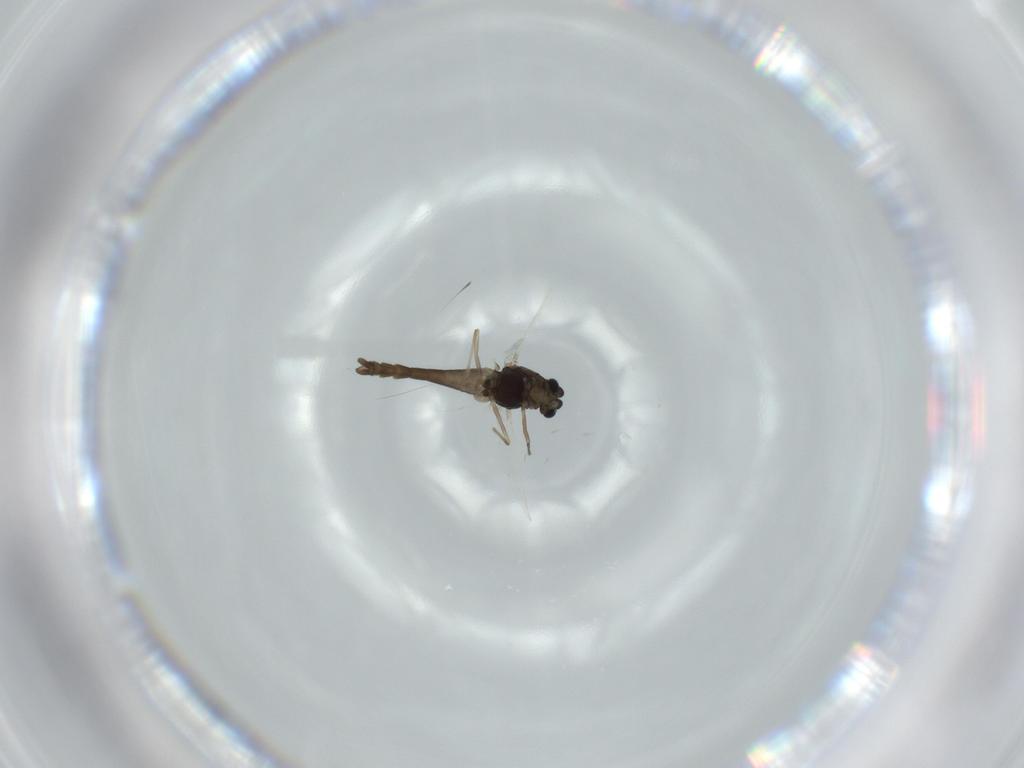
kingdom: Animalia
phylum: Arthropoda
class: Insecta
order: Diptera
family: Chironomidae
